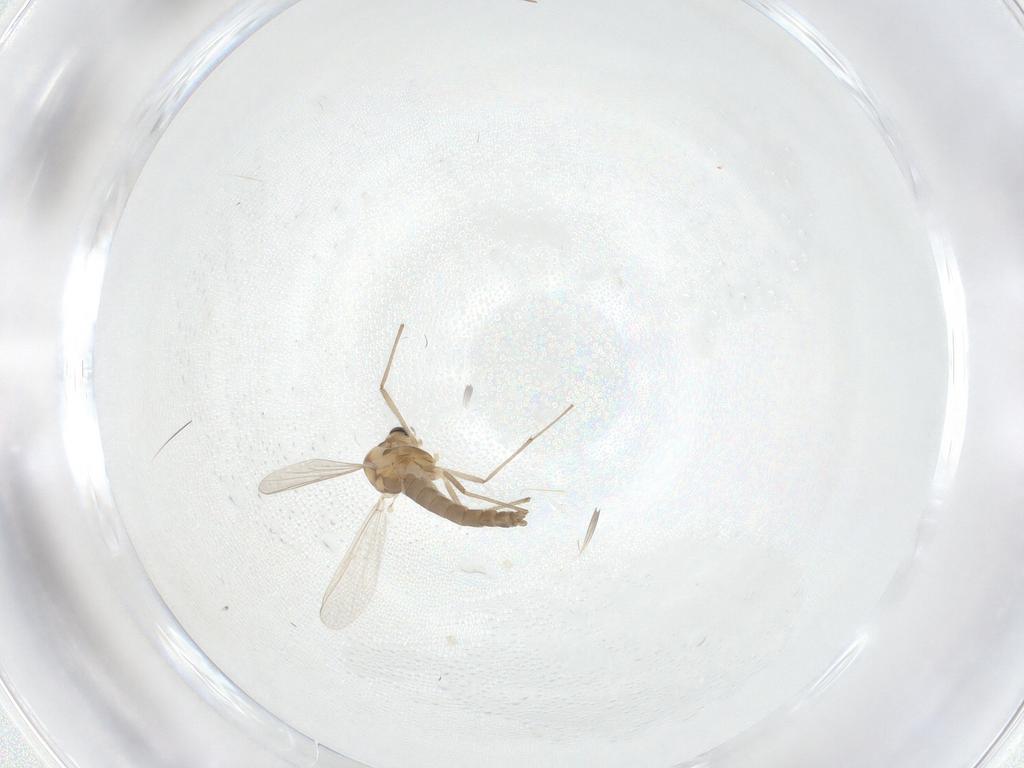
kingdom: Animalia
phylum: Arthropoda
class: Insecta
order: Diptera
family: Chironomidae
